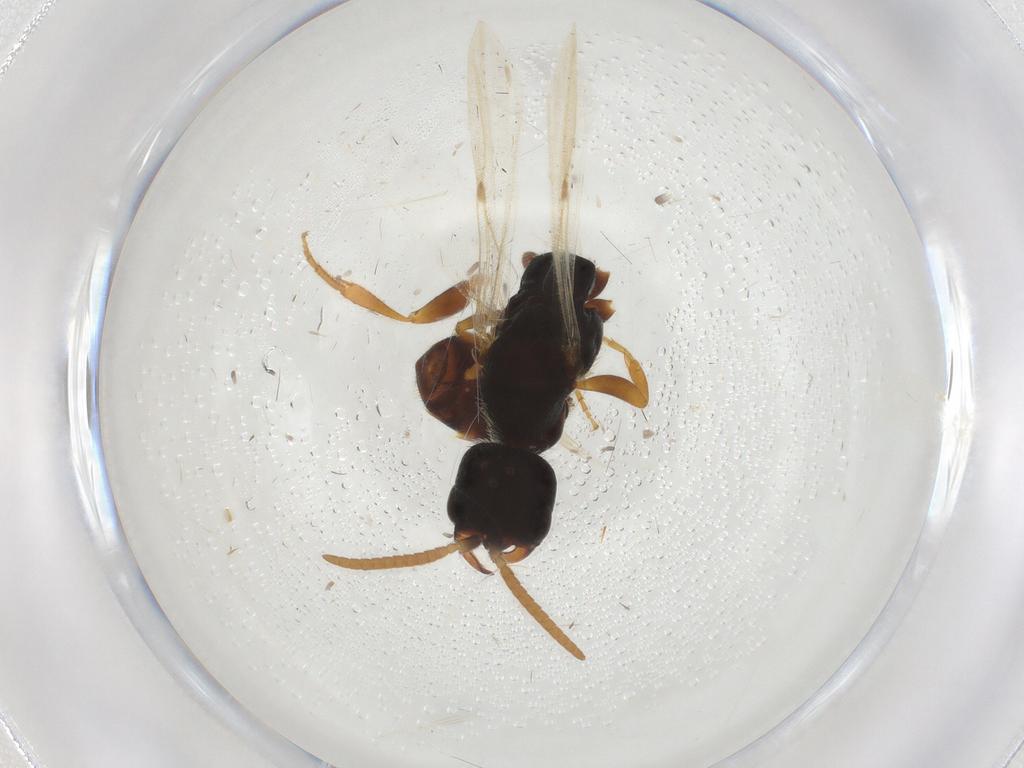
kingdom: Animalia
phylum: Arthropoda
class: Insecta
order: Hymenoptera
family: Bethylidae
